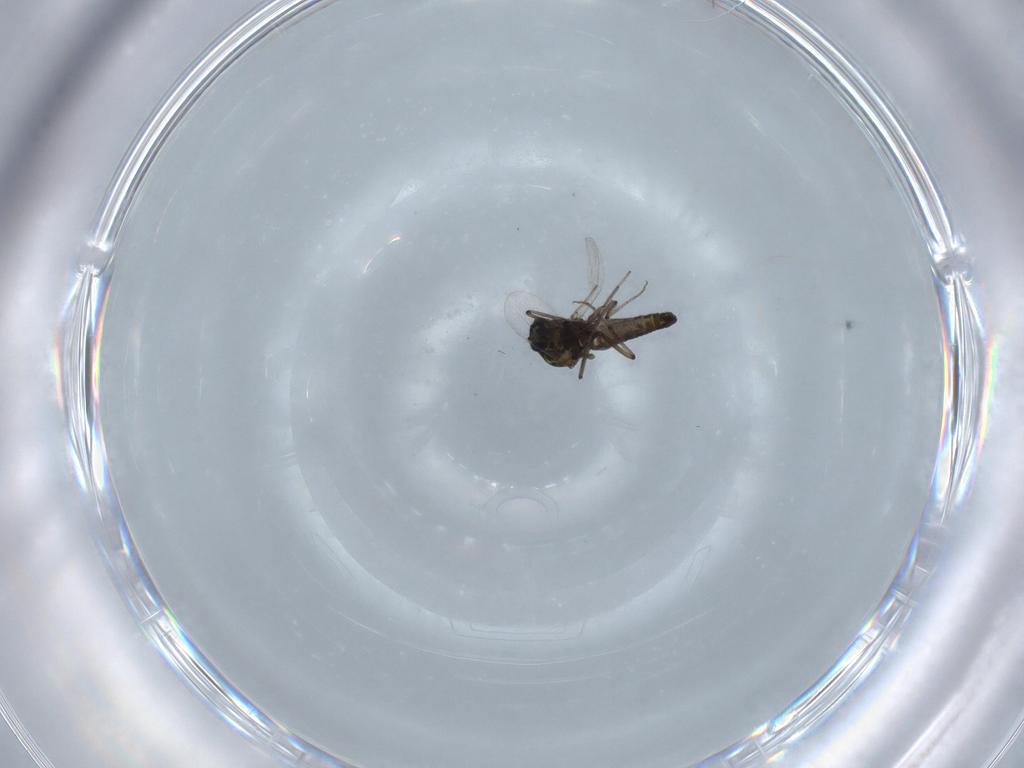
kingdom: Animalia
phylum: Arthropoda
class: Insecta
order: Diptera
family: Ceratopogonidae
